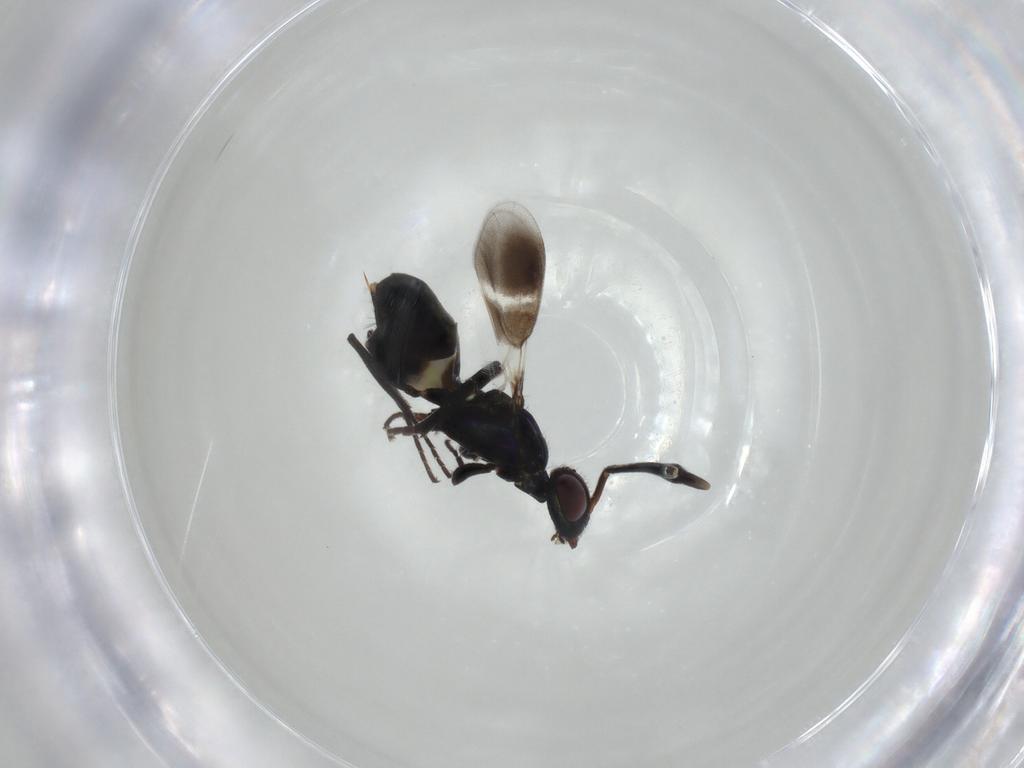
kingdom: Animalia
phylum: Arthropoda
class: Insecta
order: Hymenoptera
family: Eupelmidae
